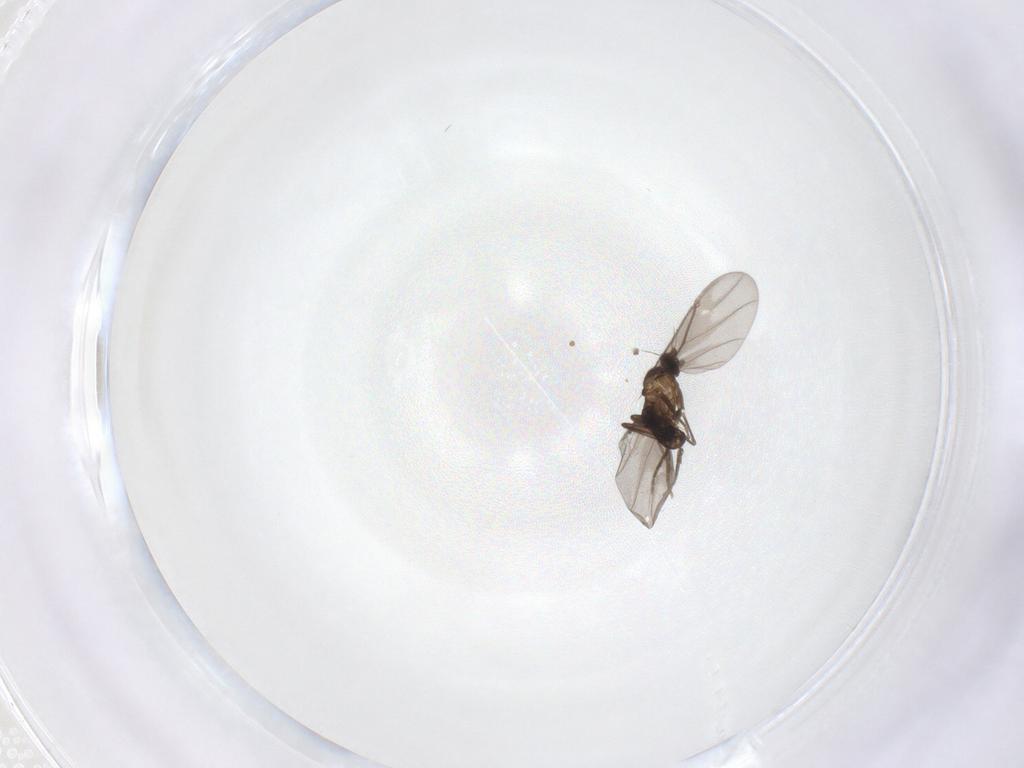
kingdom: Animalia
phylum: Arthropoda
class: Insecta
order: Diptera
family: Phoridae
